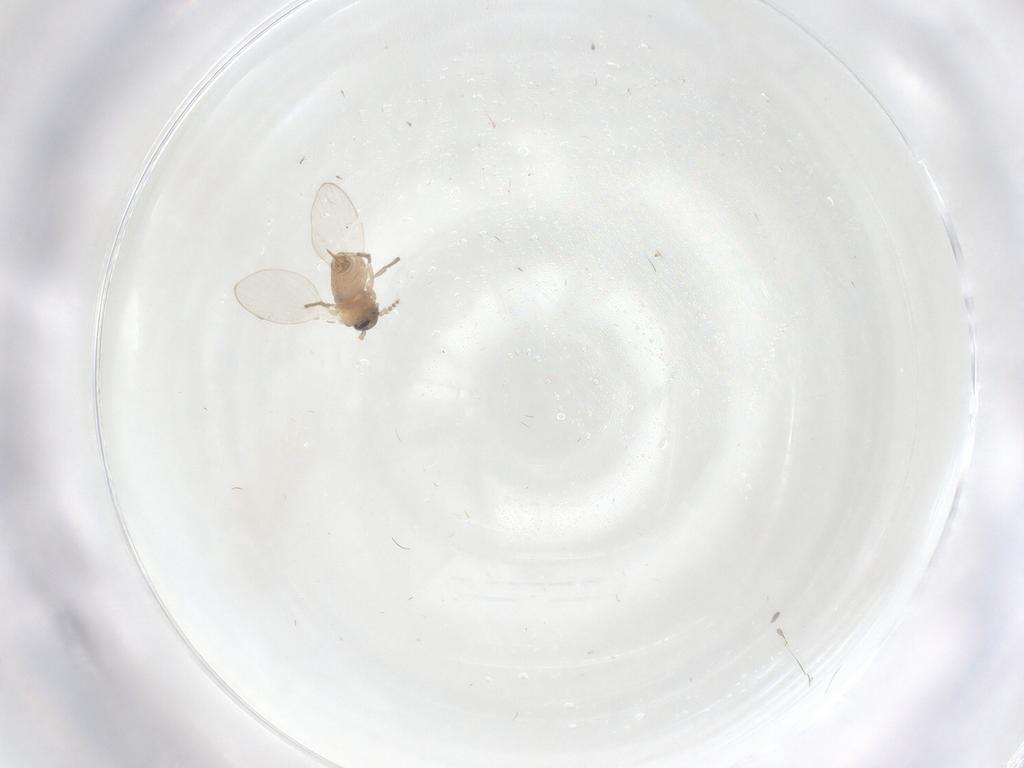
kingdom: Animalia
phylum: Arthropoda
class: Insecta
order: Diptera
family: Psychodidae
